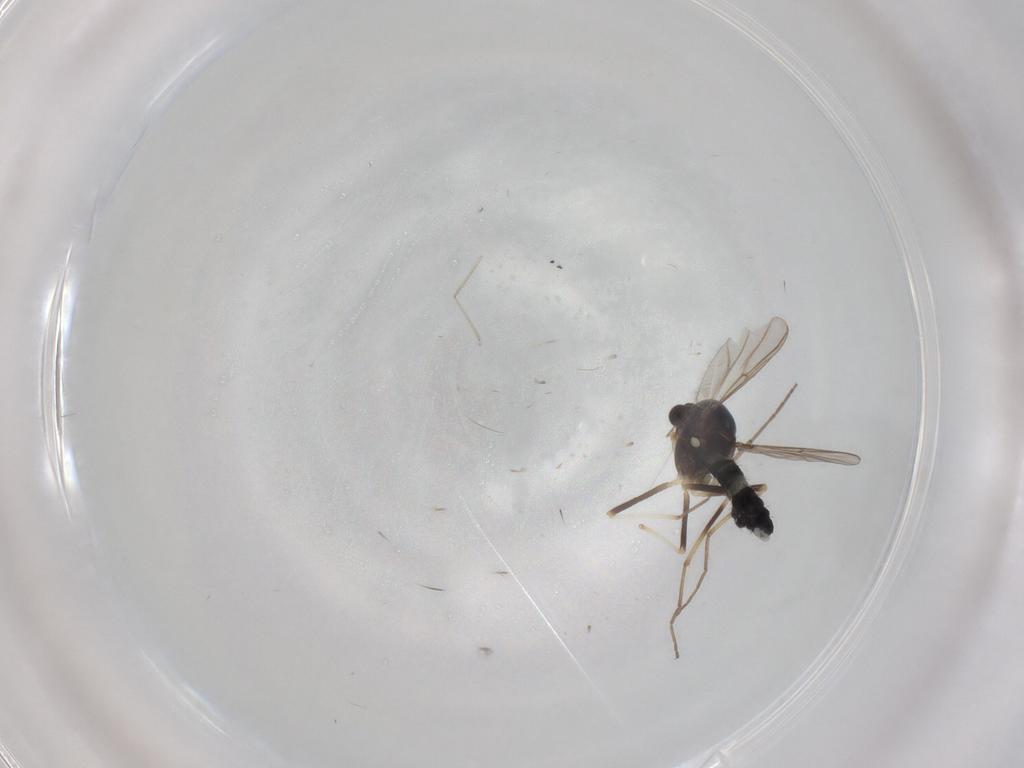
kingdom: Animalia
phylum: Arthropoda
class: Insecta
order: Diptera
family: Chironomidae
